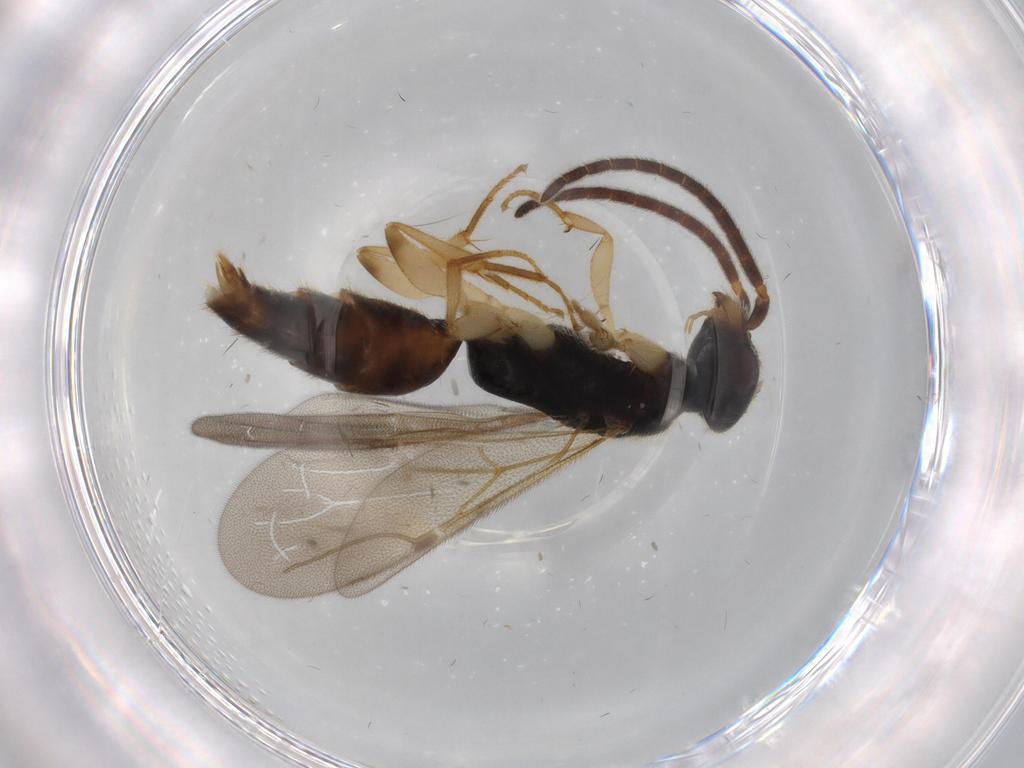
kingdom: Animalia
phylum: Arthropoda
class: Insecta
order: Hymenoptera
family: Bethylidae
